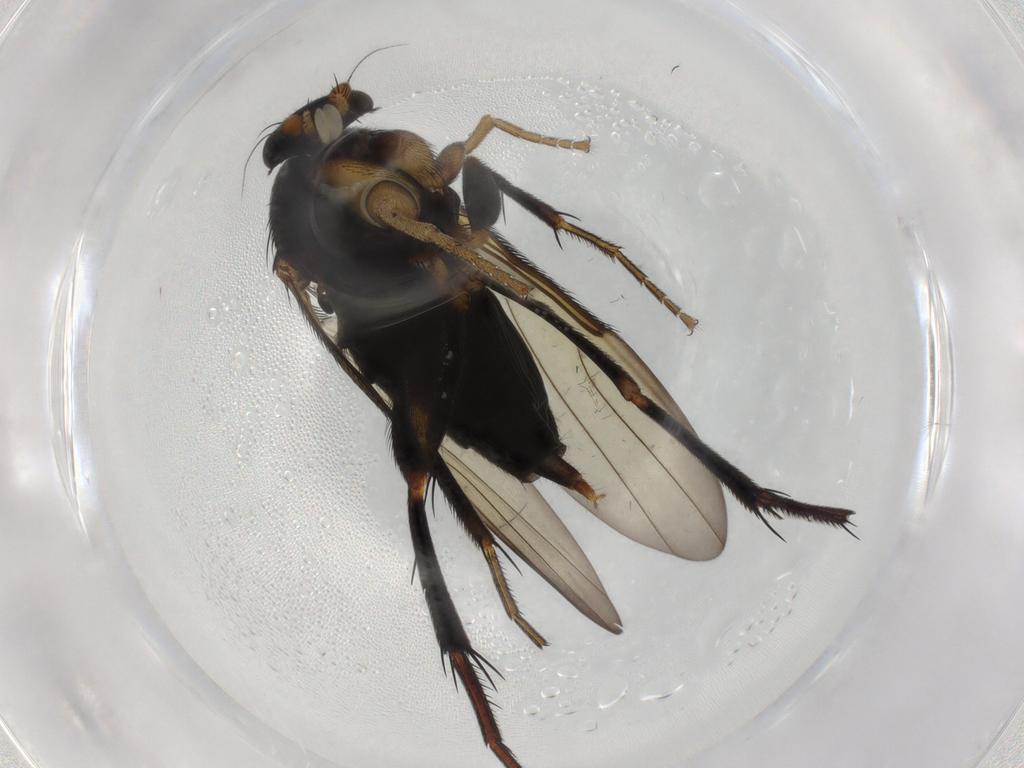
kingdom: Animalia
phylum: Arthropoda
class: Insecta
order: Diptera
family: Phoridae
